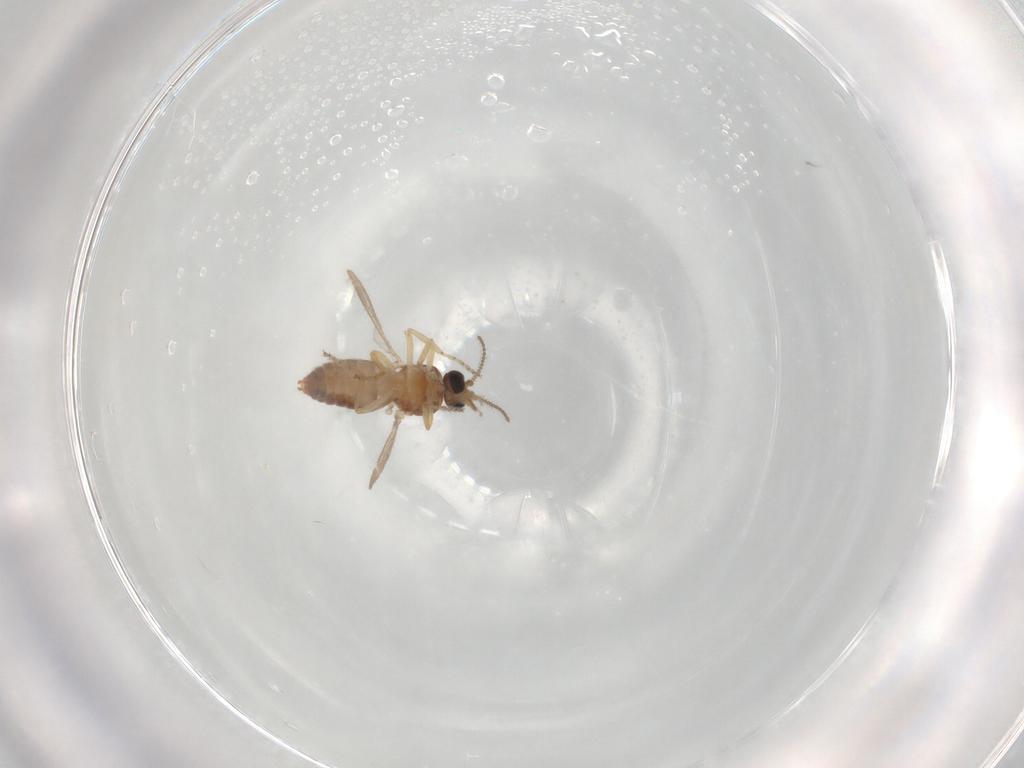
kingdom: Animalia
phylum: Arthropoda
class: Insecta
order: Diptera
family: Ceratopogonidae
